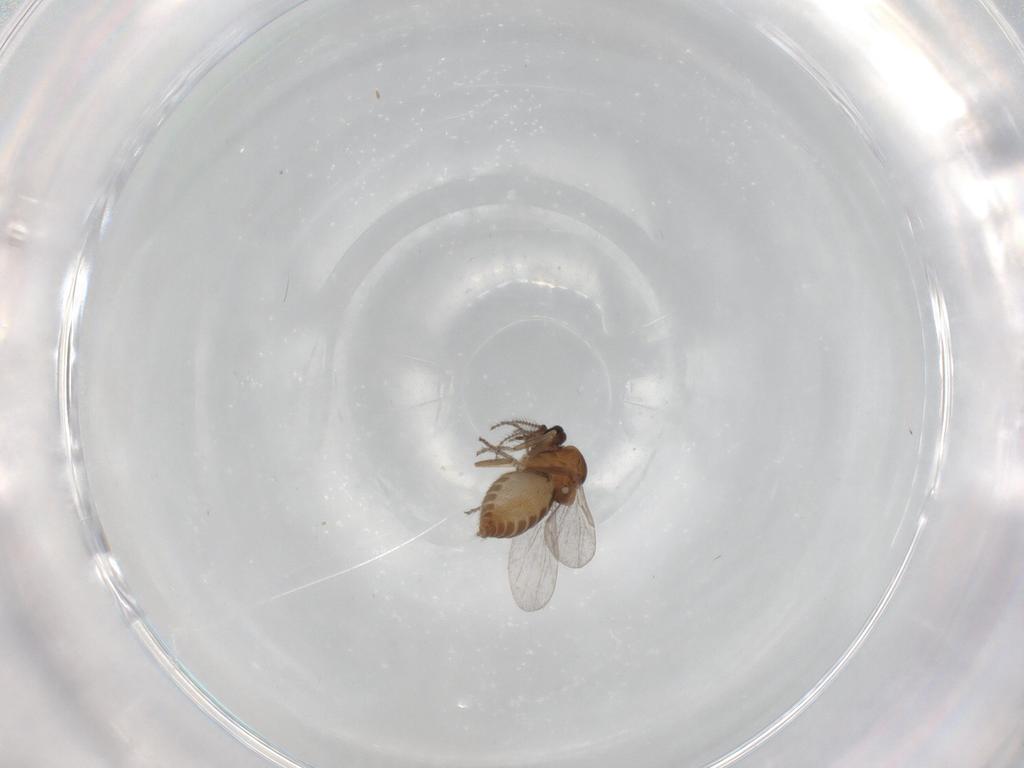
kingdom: Animalia
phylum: Arthropoda
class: Insecta
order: Diptera
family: Ceratopogonidae
